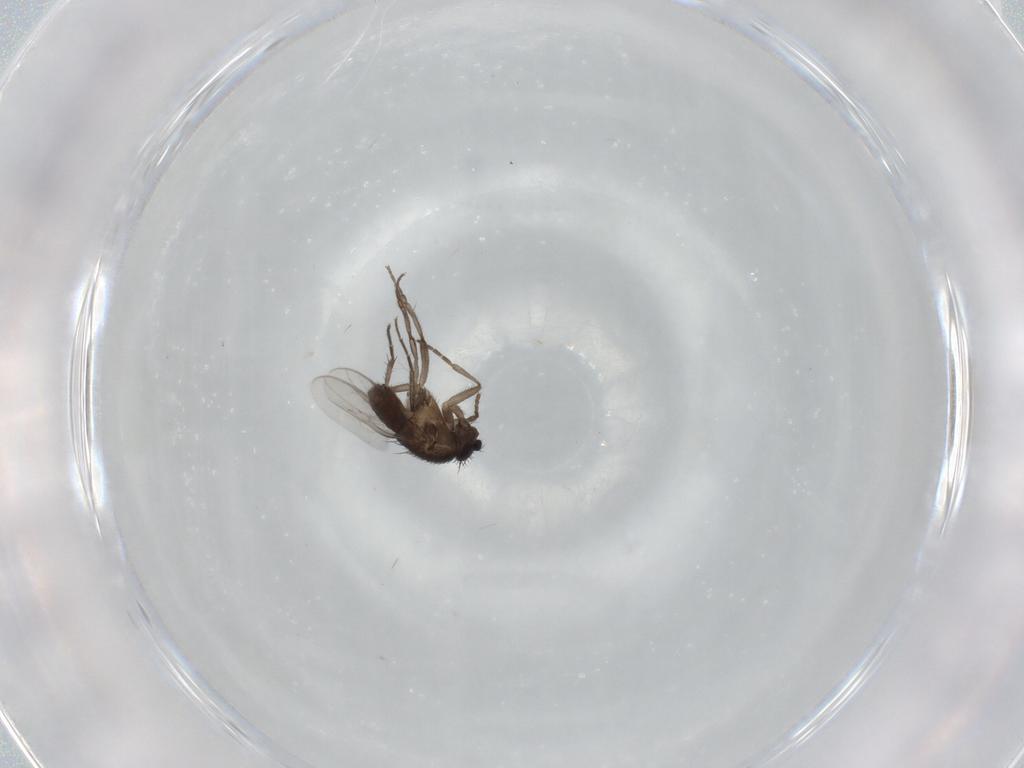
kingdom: Animalia
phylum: Arthropoda
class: Insecta
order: Diptera
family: Sphaeroceridae
